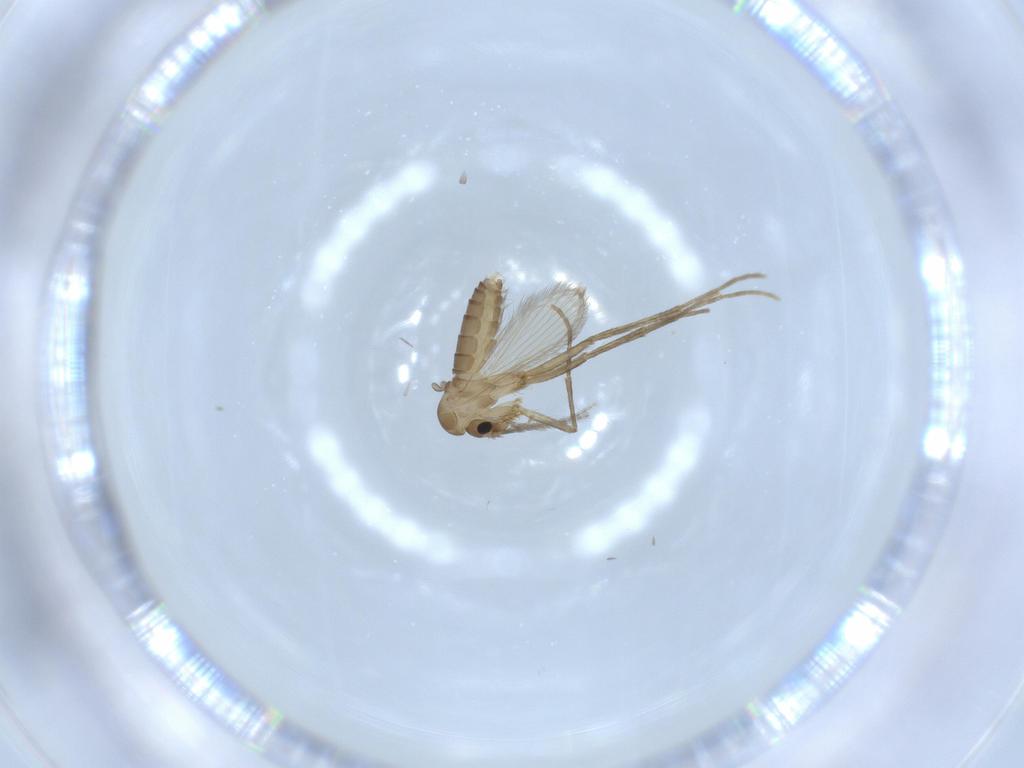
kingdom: Animalia
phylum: Arthropoda
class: Insecta
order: Diptera
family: Psychodidae
